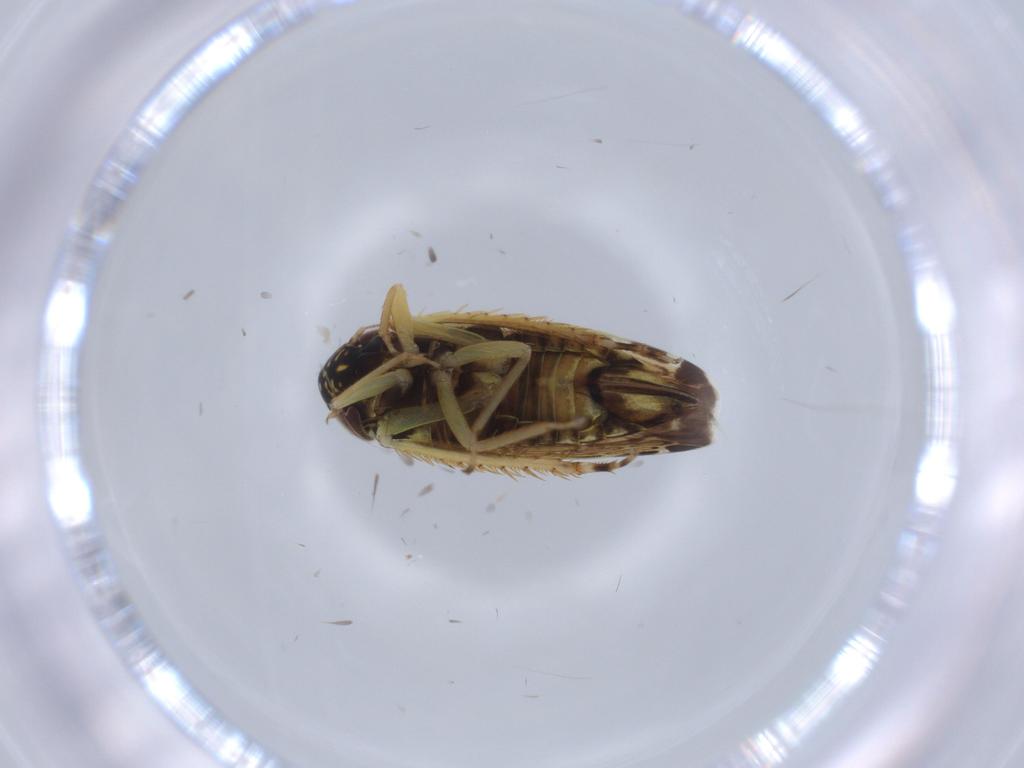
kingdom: Animalia
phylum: Arthropoda
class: Insecta
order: Hemiptera
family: Cicadellidae
